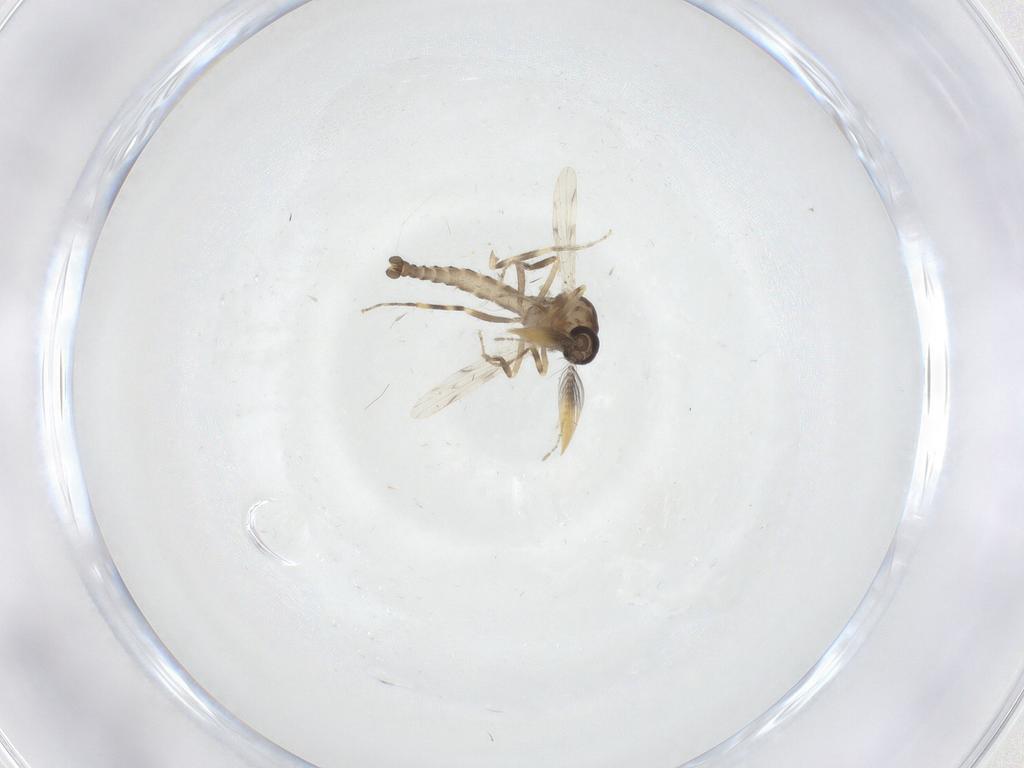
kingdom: Animalia
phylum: Arthropoda
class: Insecta
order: Diptera
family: Ceratopogonidae
